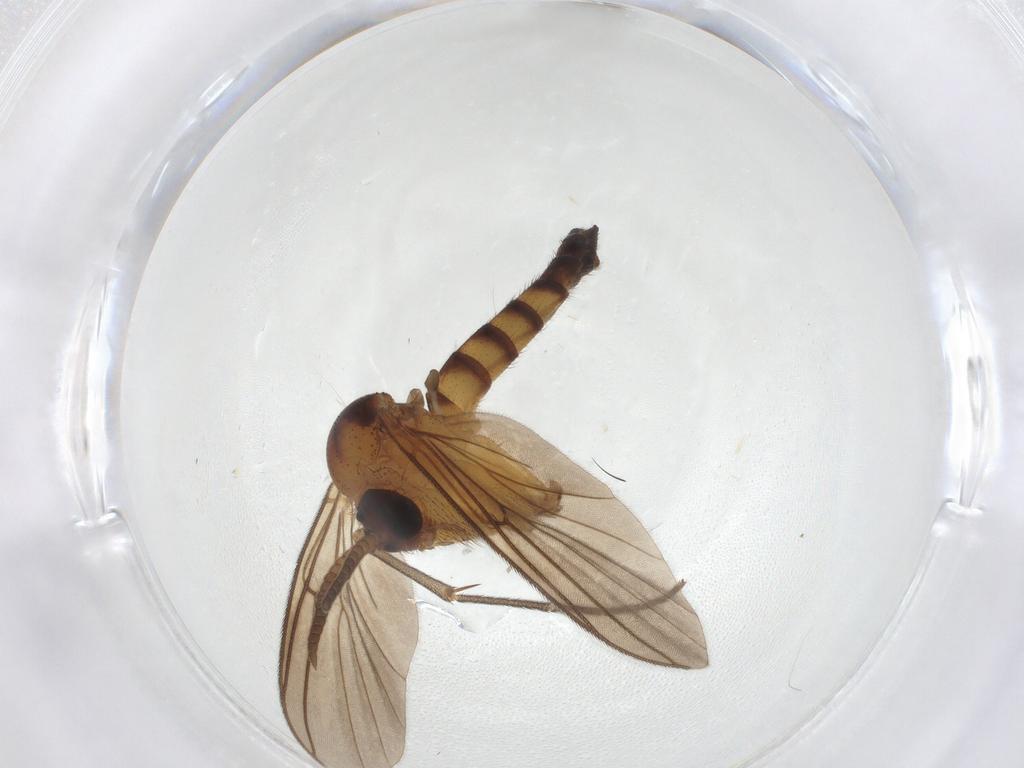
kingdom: Animalia
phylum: Arthropoda
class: Insecta
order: Diptera
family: Mycetophilidae
